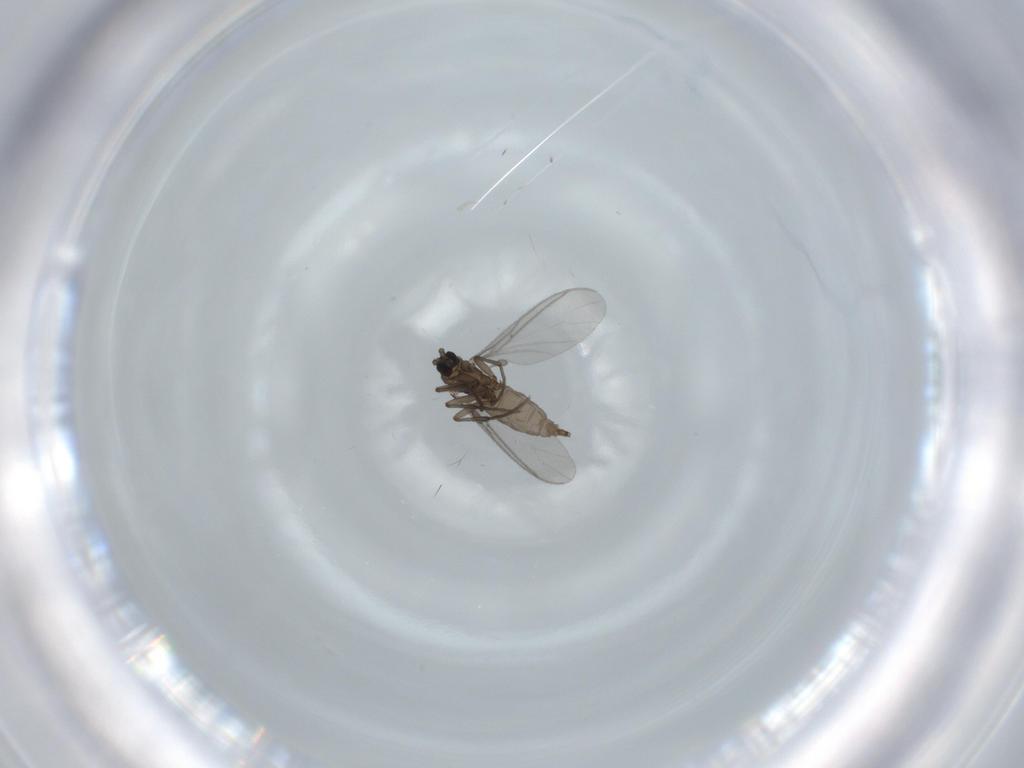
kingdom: Animalia
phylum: Arthropoda
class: Insecta
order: Diptera
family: Sciaridae
